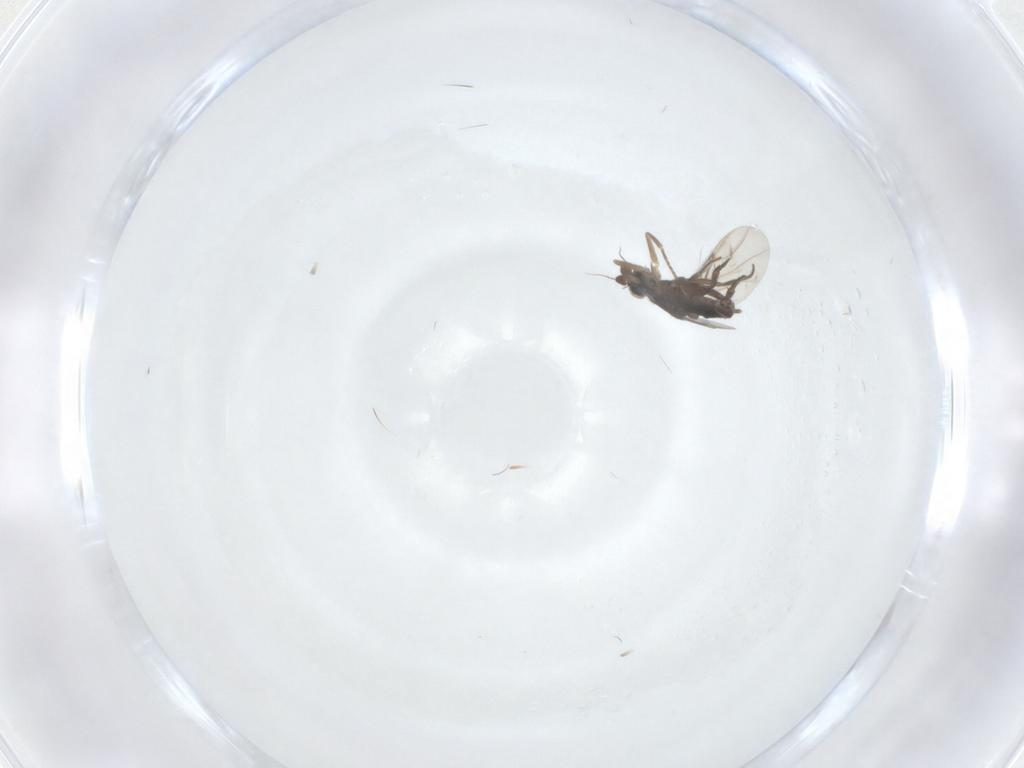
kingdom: Animalia
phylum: Arthropoda
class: Insecta
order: Diptera
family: Phoridae
